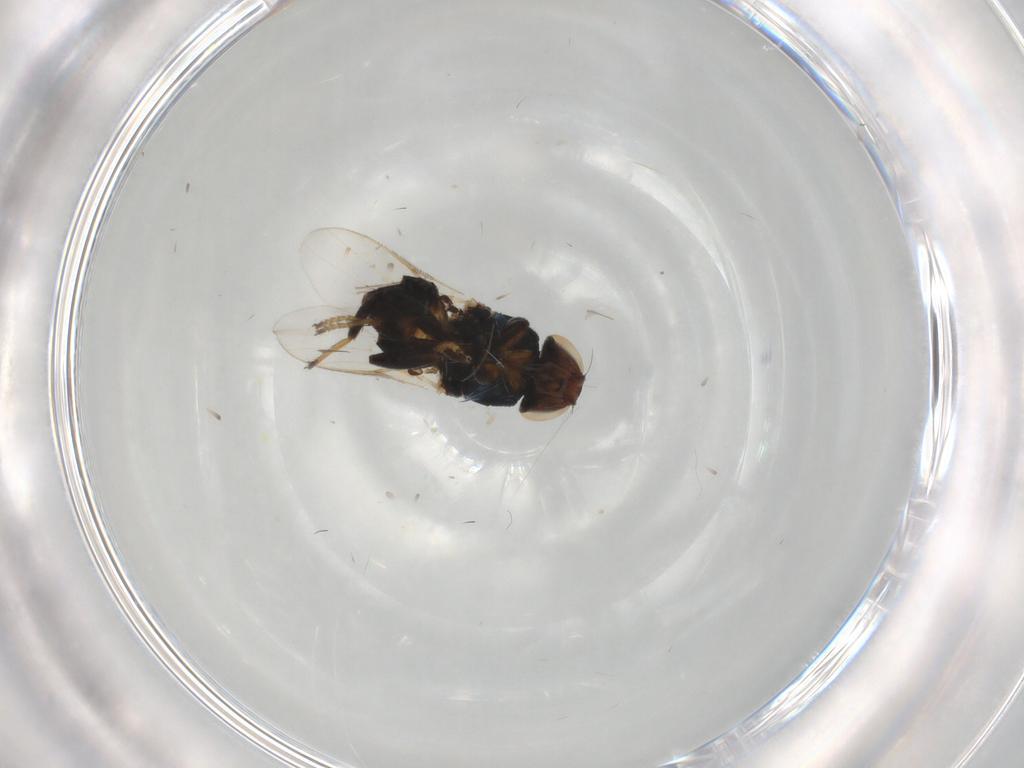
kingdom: Animalia
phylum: Arthropoda
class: Insecta
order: Diptera
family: Chloropidae
